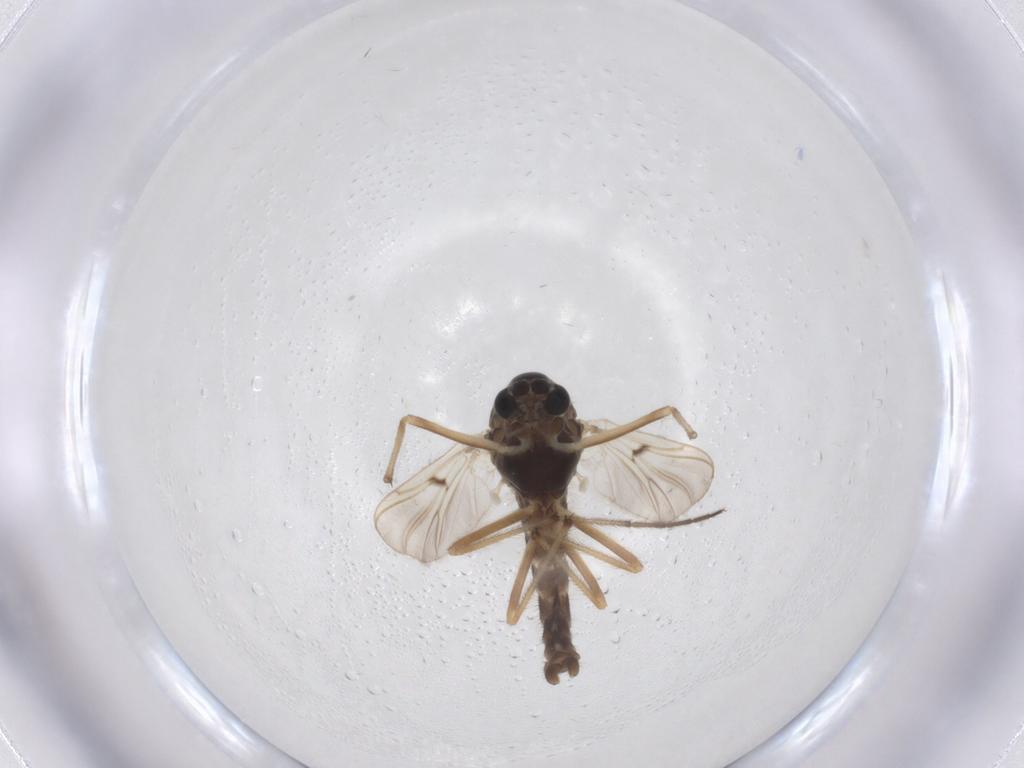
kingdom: Animalia
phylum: Arthropoda
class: Insecta
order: Diptera
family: Chironomidae
